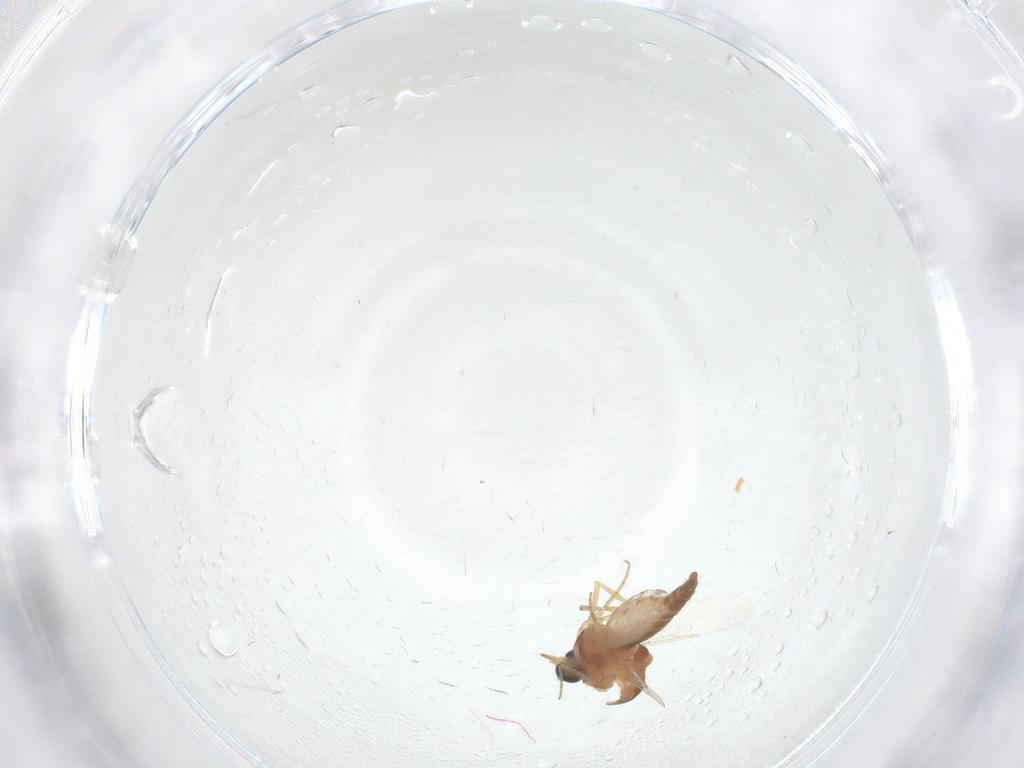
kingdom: Animalia
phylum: Arthropoda
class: Insecta
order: Diptera
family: Ceratopogonidae
